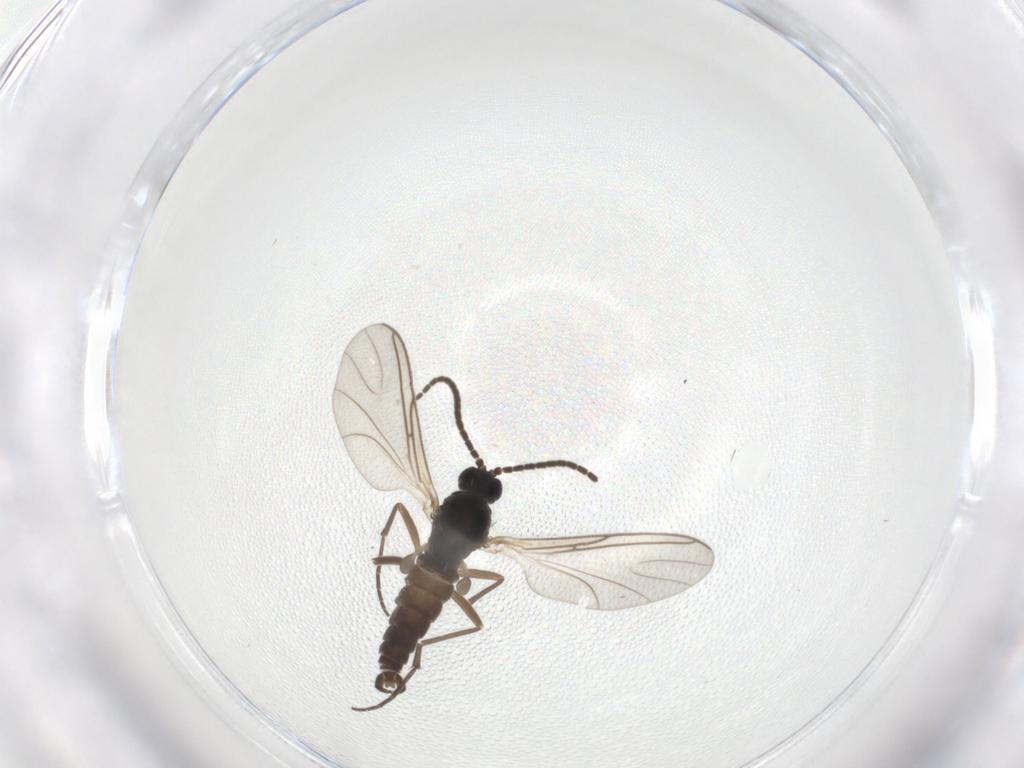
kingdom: Animalia
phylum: Arthropoda
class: Insecta
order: Diptera
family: Sciaridae
